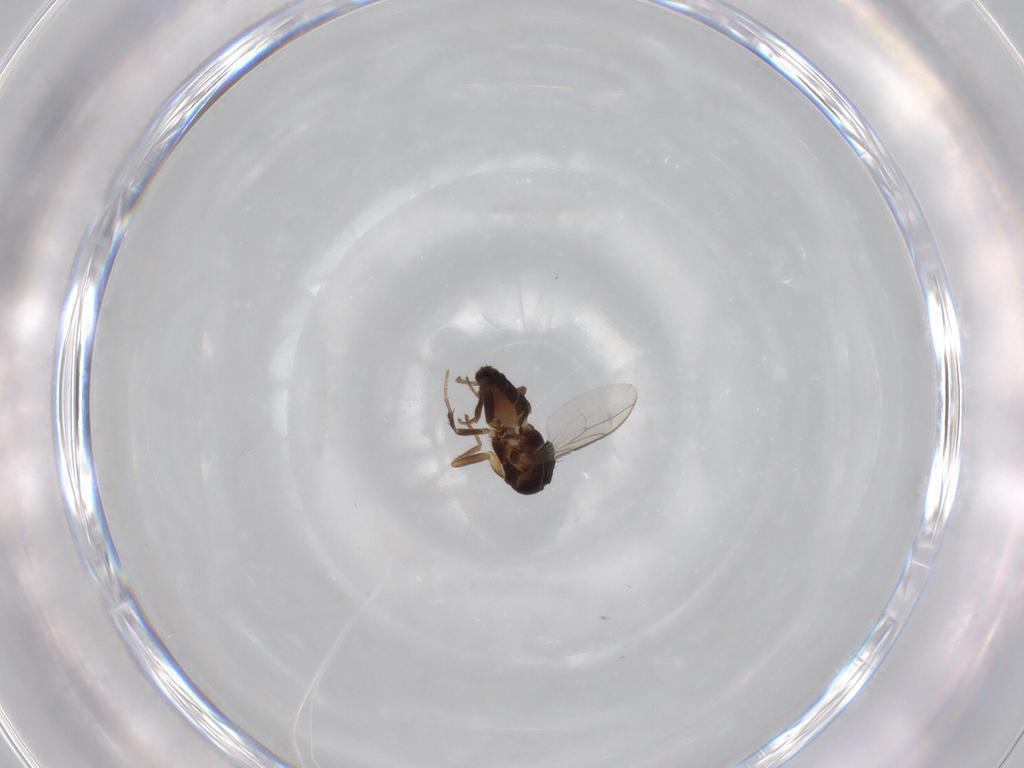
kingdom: Animalia
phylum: Arthropoda
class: Insecta
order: Diptera
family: Sphaeroceridae
